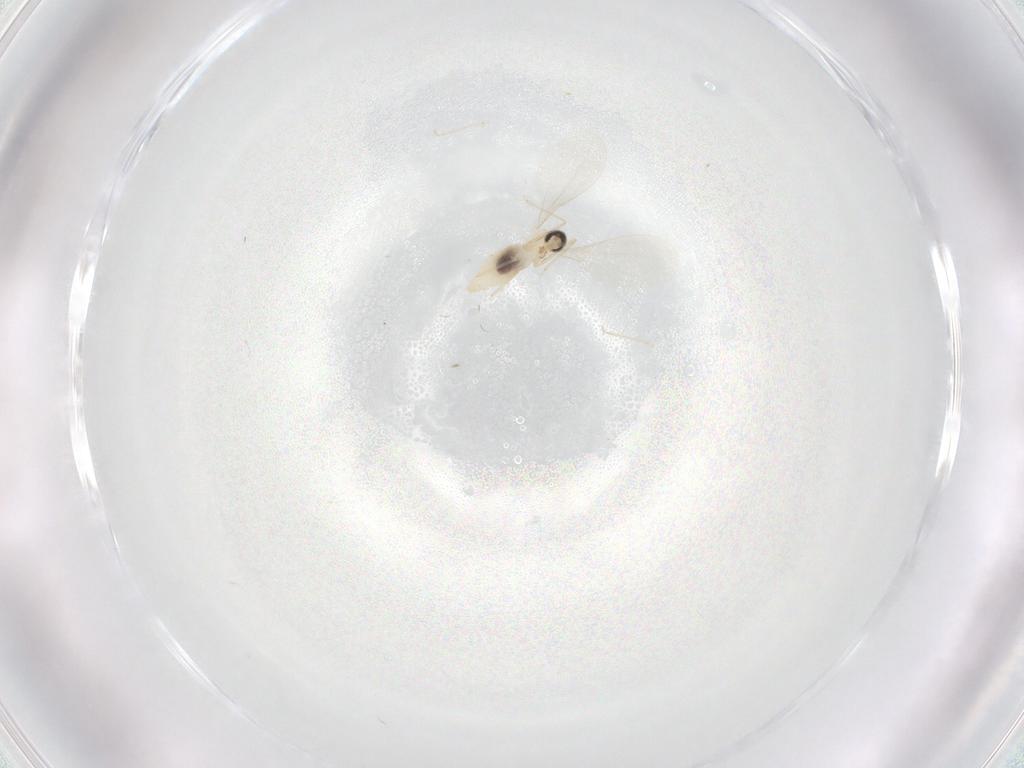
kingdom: Animalia
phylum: Arthropoda
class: Insecta
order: Diptera
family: Cecidomyiidae
